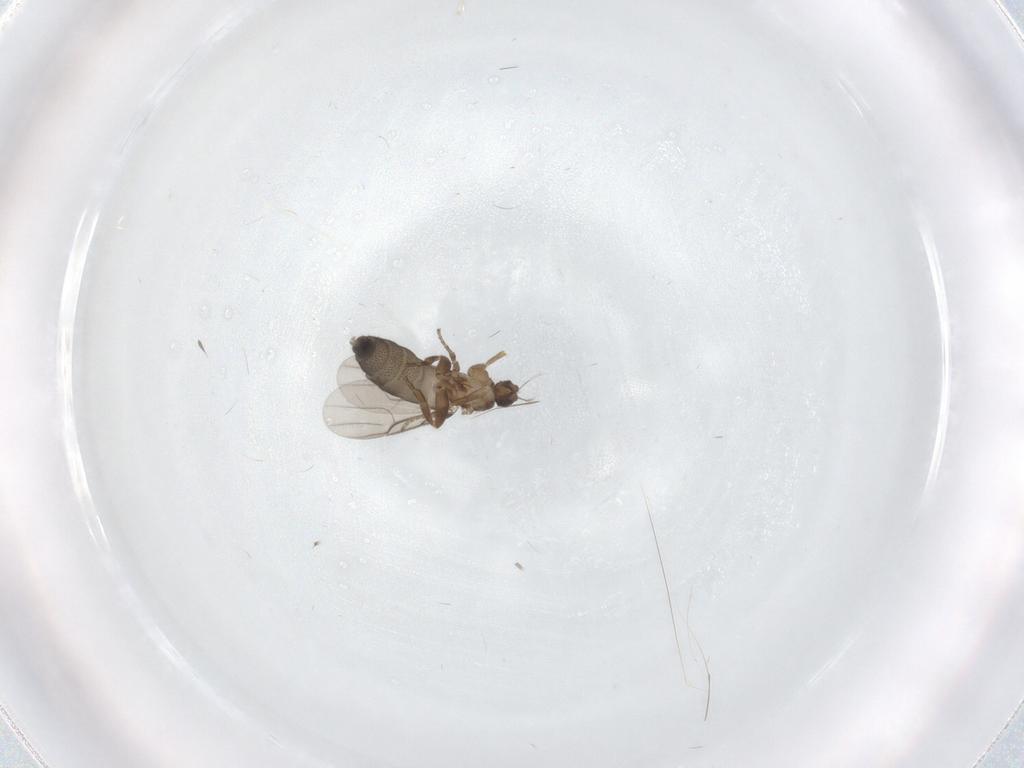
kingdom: Animalia
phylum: Arthropoda
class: Insecta
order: Diptera
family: Phoridae
